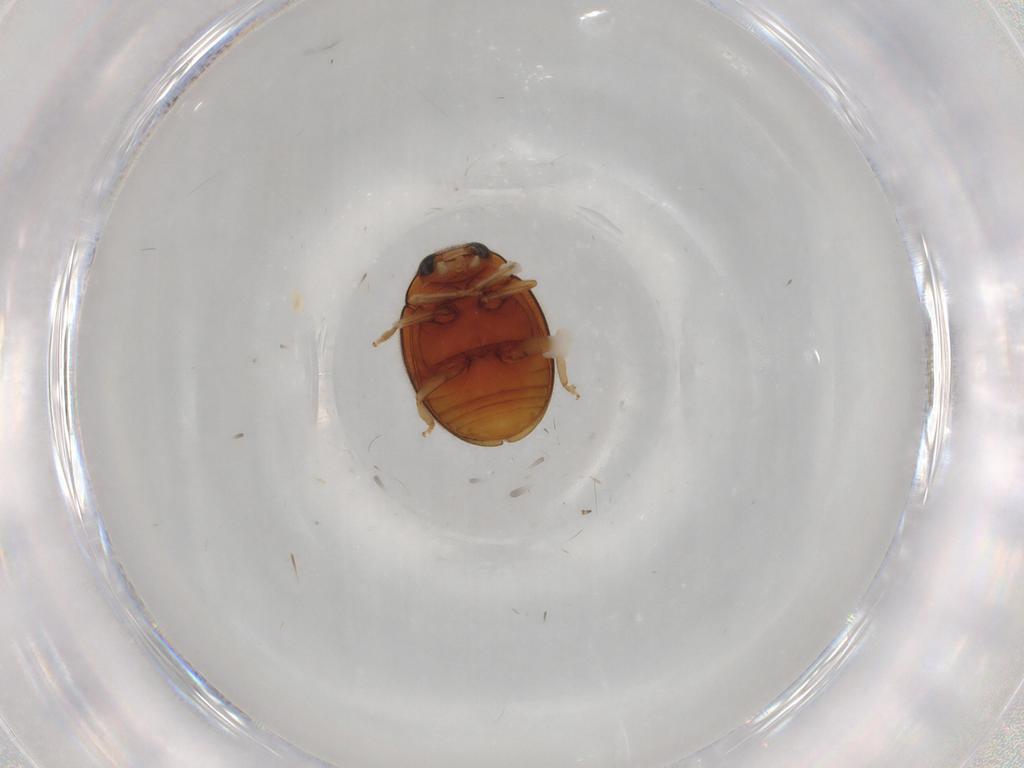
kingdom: Animalia
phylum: Arthropoda
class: Insecta
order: Coleoptera
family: Coccinellidae
